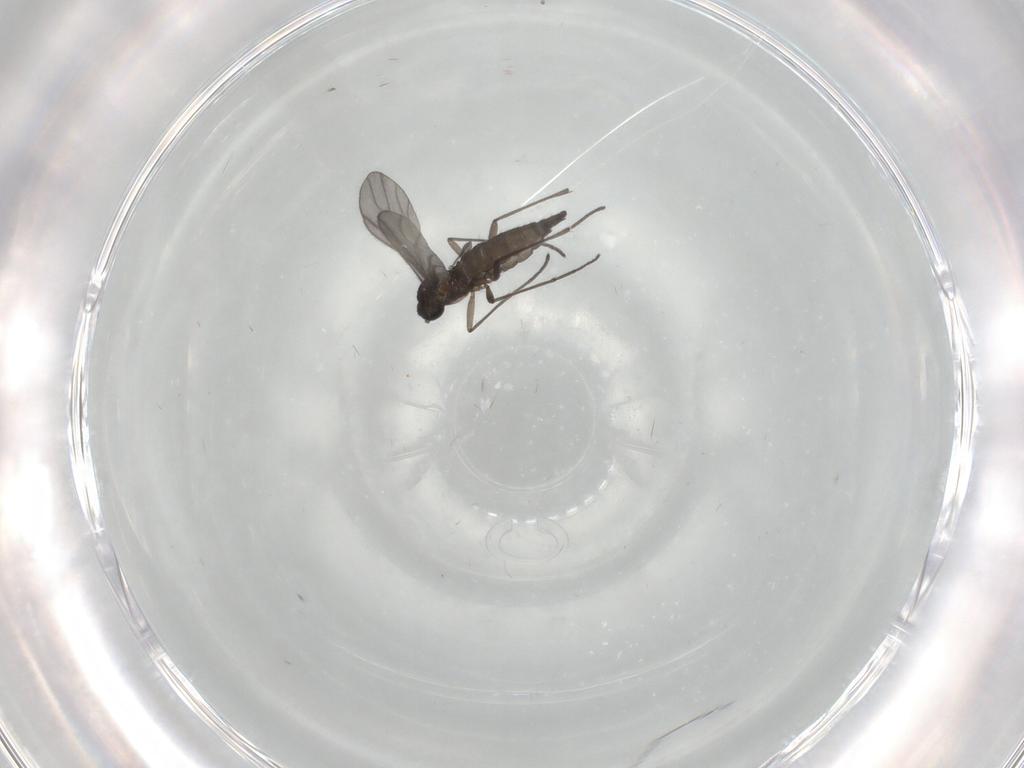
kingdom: Animalia
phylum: Arthropoda
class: Insecta
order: Diptera
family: Sciaridae
